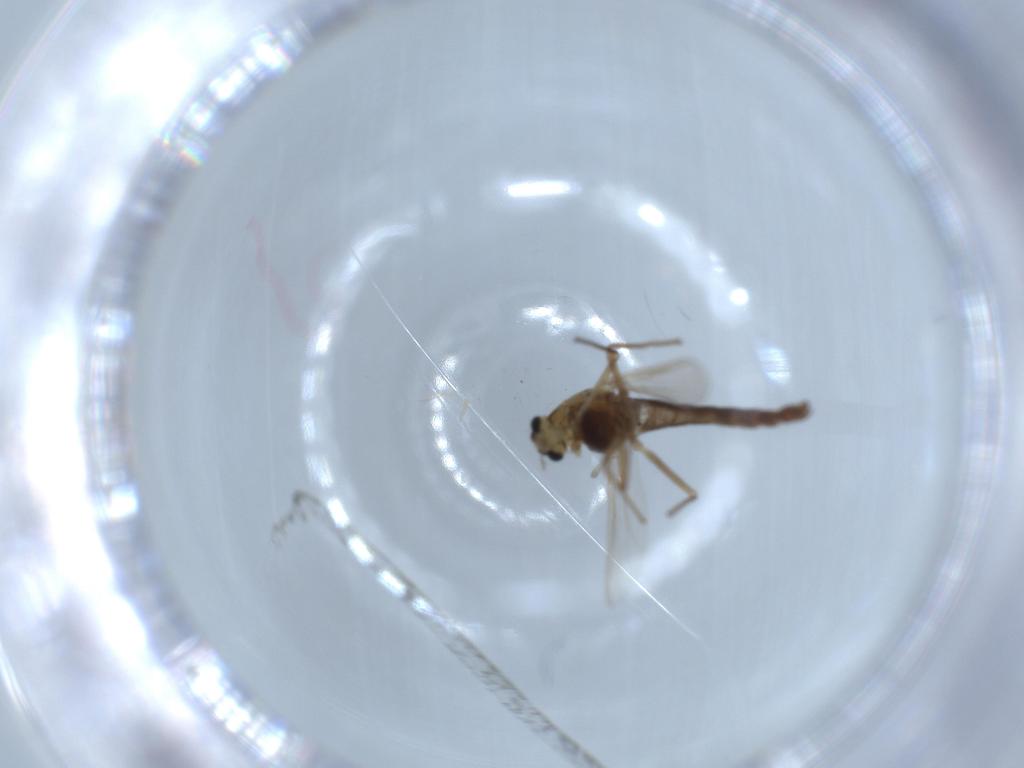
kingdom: Animalia
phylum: Arthropoda
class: Insecta
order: Diptera
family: Chironomidae
